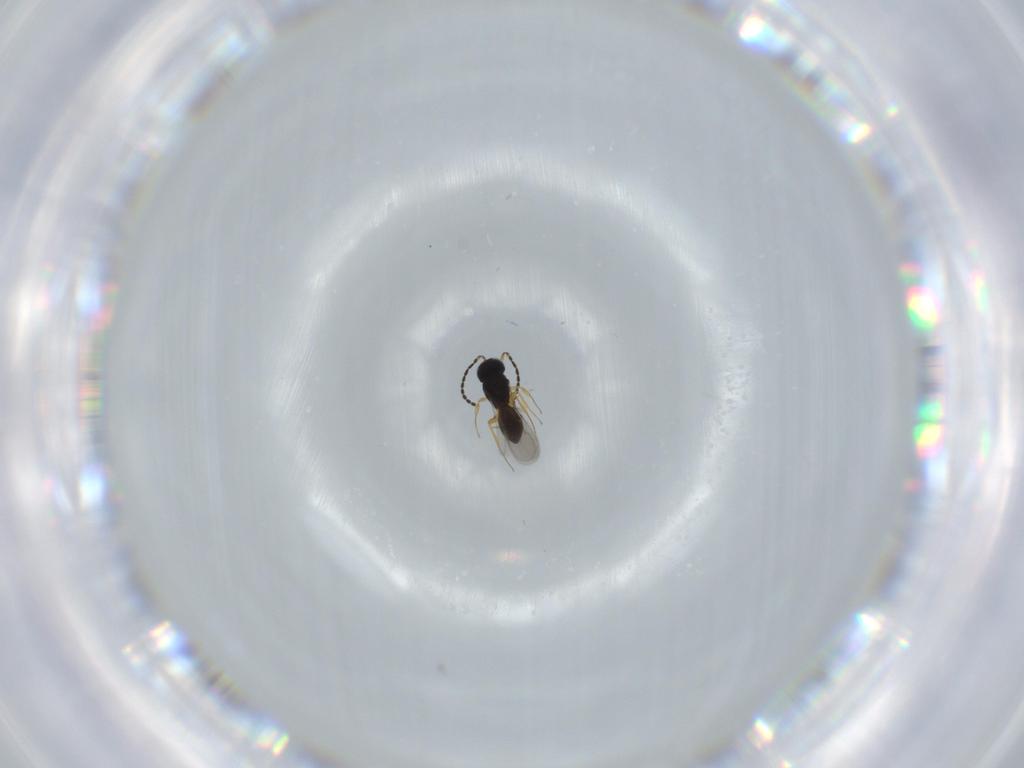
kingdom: Animalia
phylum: Arthropoda
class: Insecta
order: Hymenoptera
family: Scelionidae
